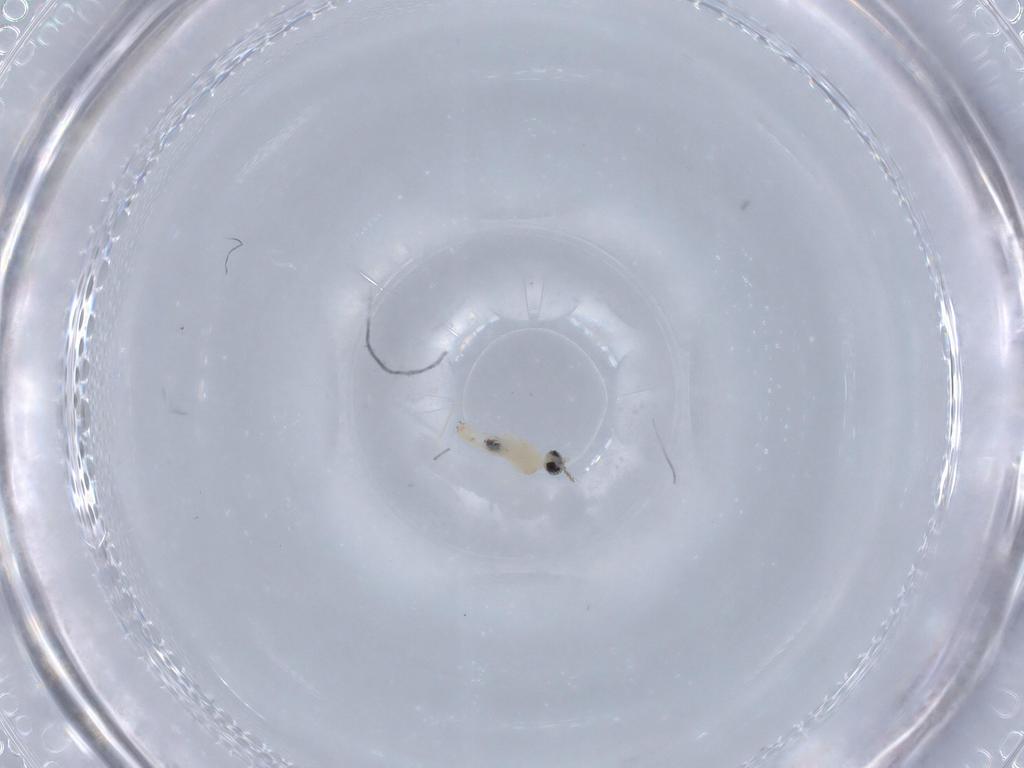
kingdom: Animalia
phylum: Arthropoda
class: Insecta
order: Diptera
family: Cecidomyiidae
